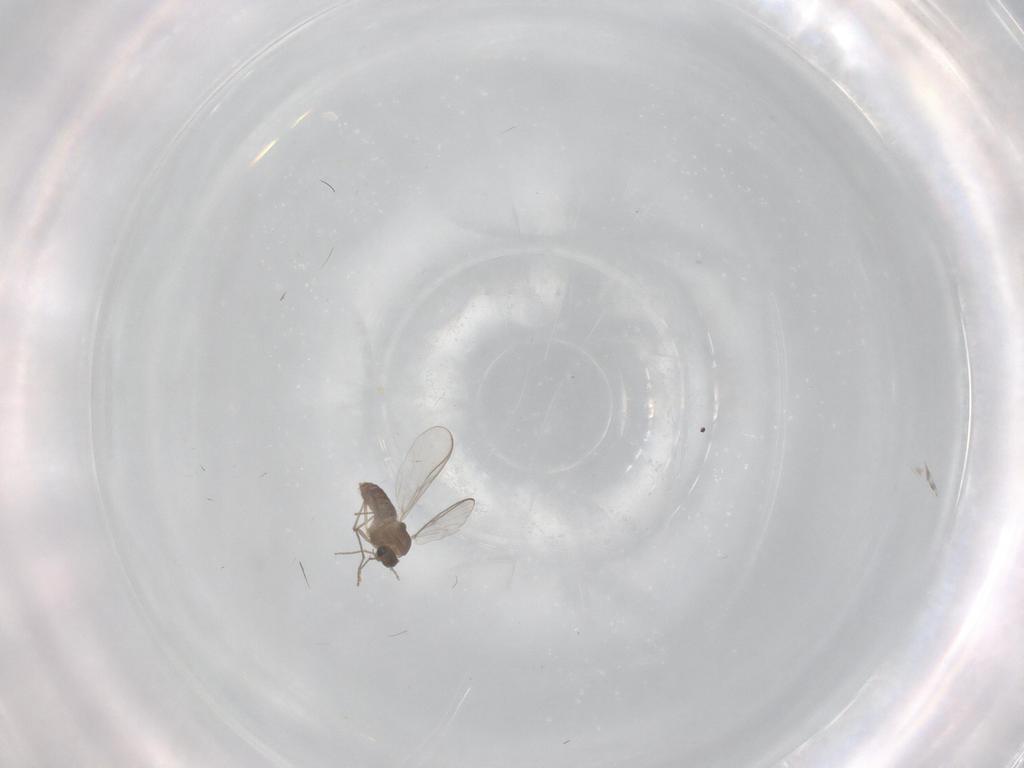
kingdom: Animalia
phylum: Arthropoda
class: Insecta
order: Diptera
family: Chironomidae
